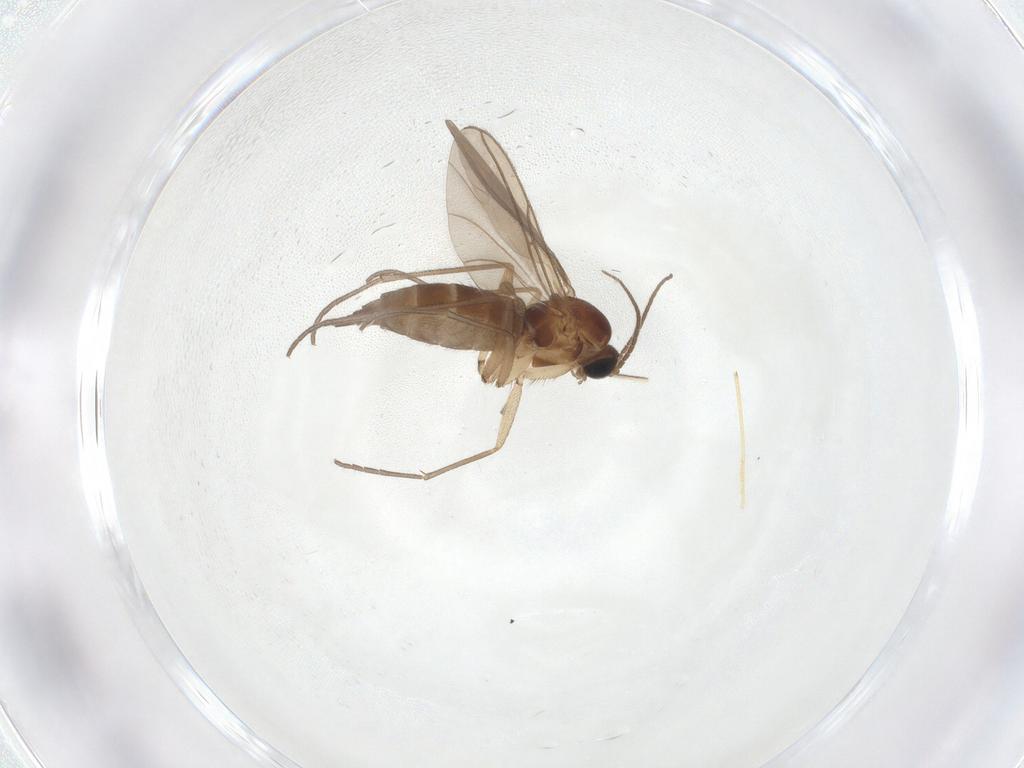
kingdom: Animalia
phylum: Arthropoda
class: Insecta
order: Diptera
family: Sciaridae
